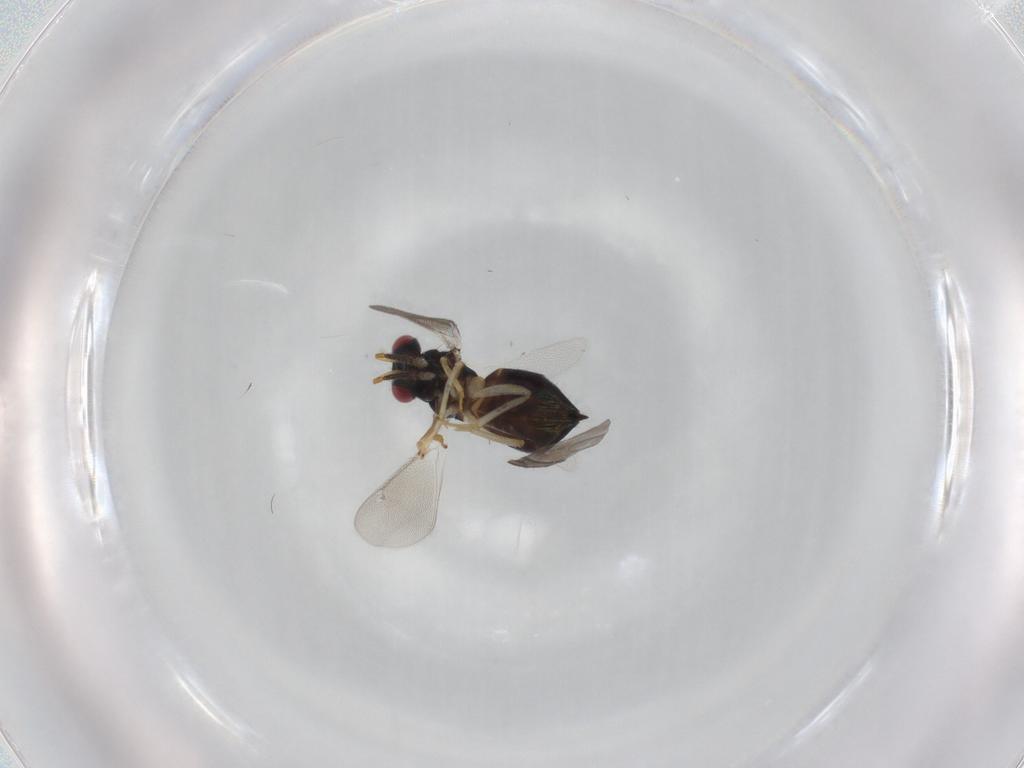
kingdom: Animalia
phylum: Arthropoda
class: Insecta
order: Hymenoptera
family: Eulophidae
